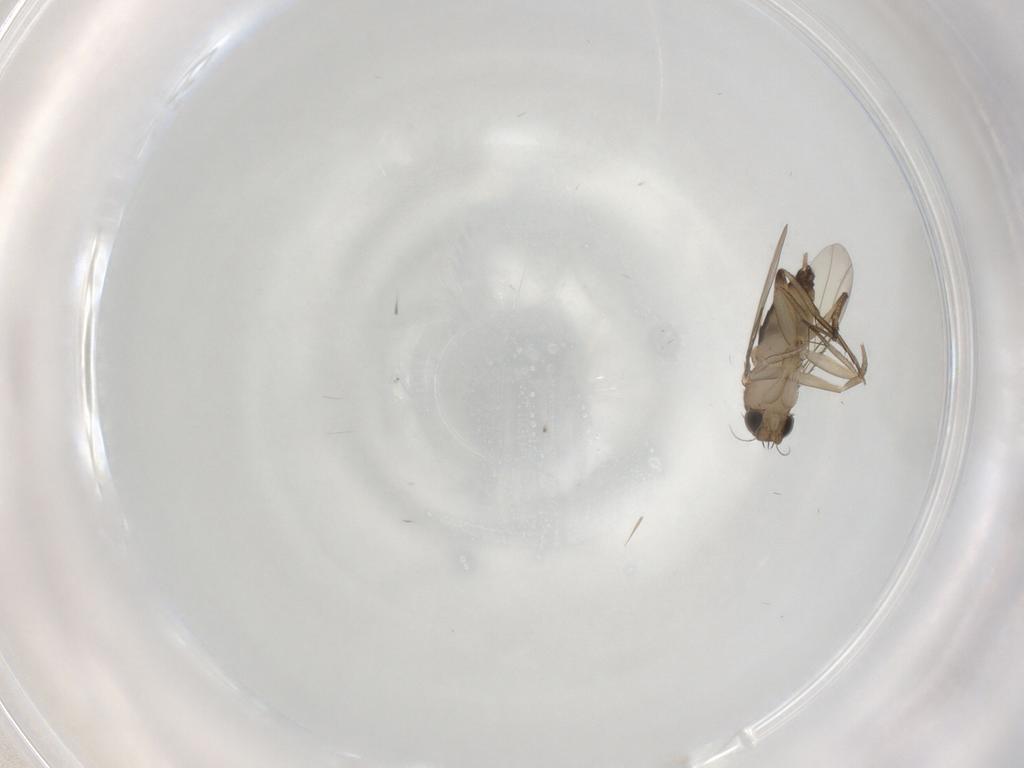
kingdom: Animalia
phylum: Arthropoda
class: Insecta
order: Diptera
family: Phoridae
